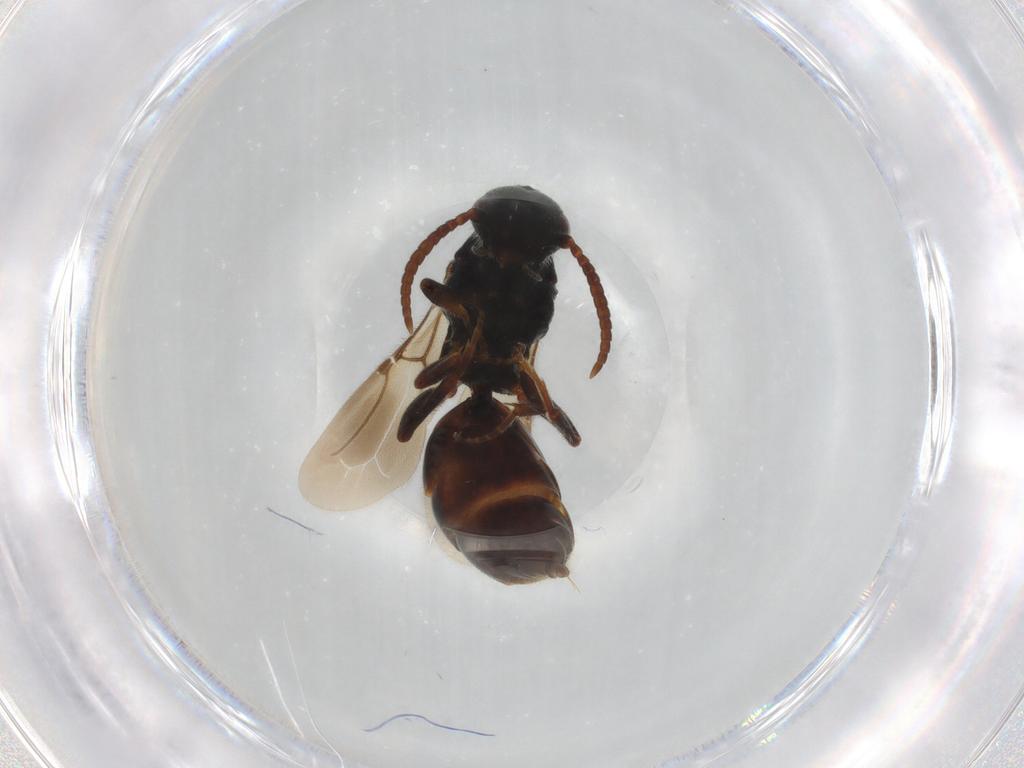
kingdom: Animalia
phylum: Arthropoda
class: Insecta
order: Hymenoptera
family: Bethylidae
